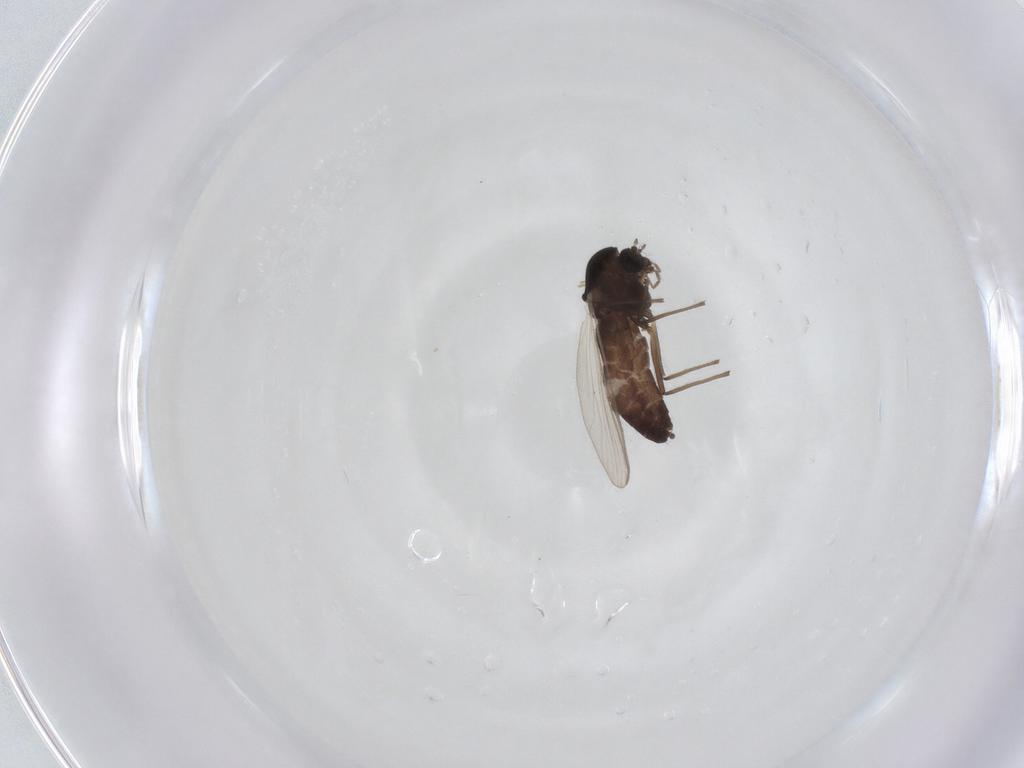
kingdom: Animalia
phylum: Arthropoda
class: Insecta
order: Diptera
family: Chironomidae
